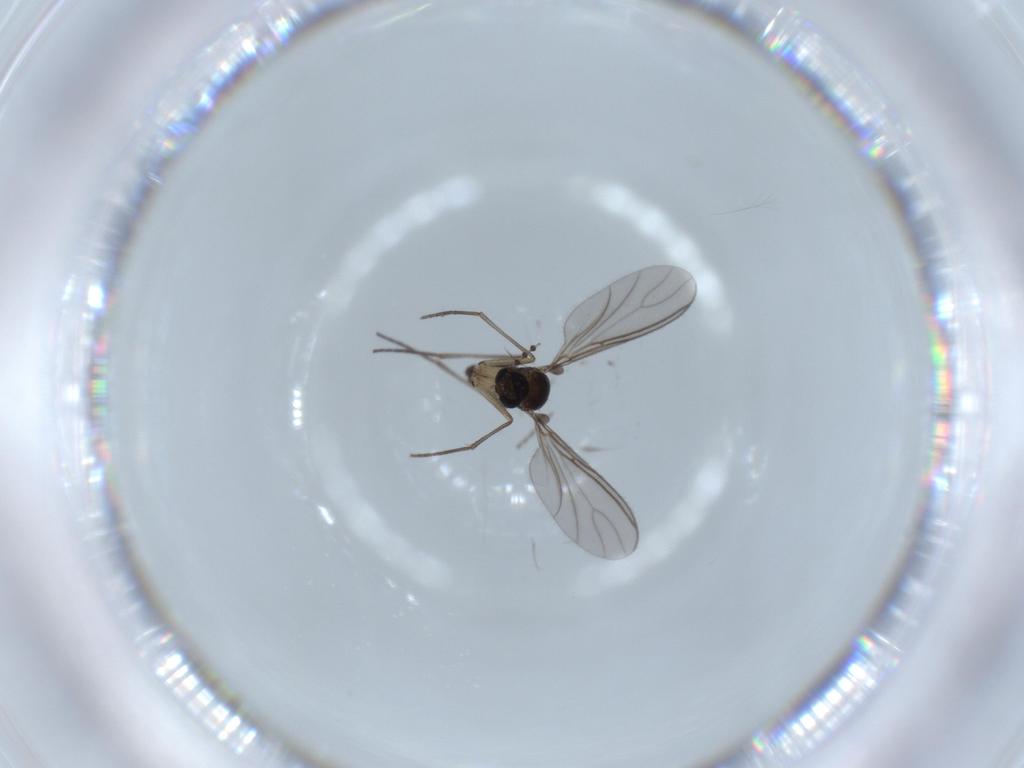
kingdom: Animalia
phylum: Arthropoda
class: Insecta
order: Diptera
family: Sciaridae
